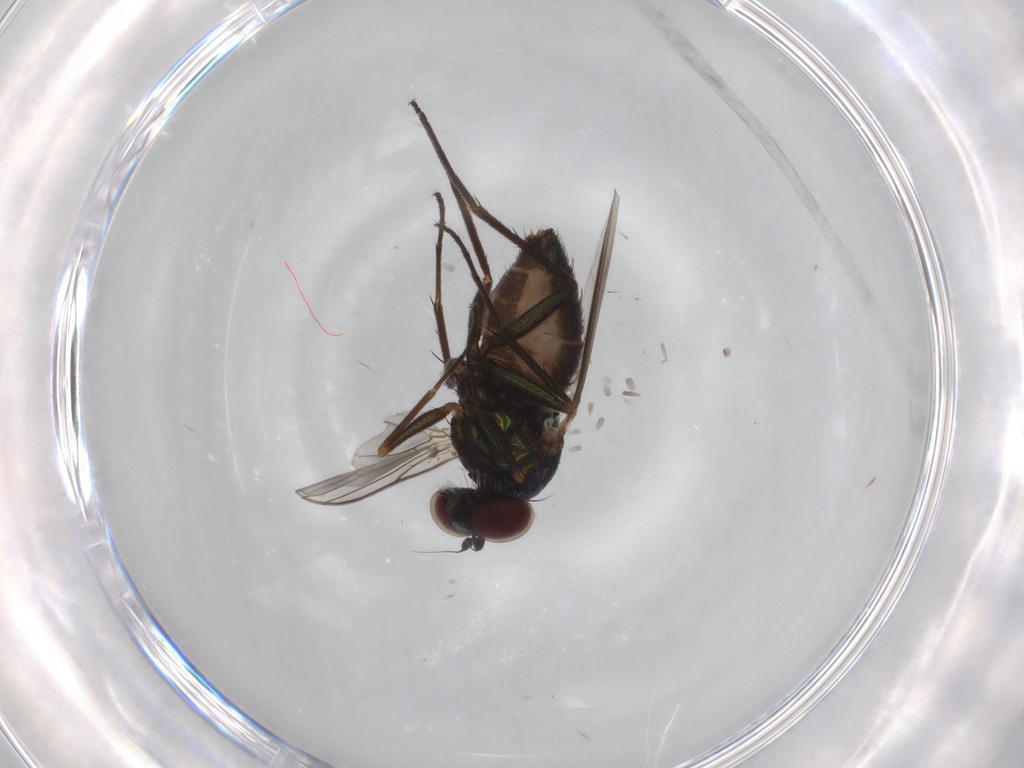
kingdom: Animalia
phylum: Arthropoda
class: Insecta
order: Diptera
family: Dolichopodidae
